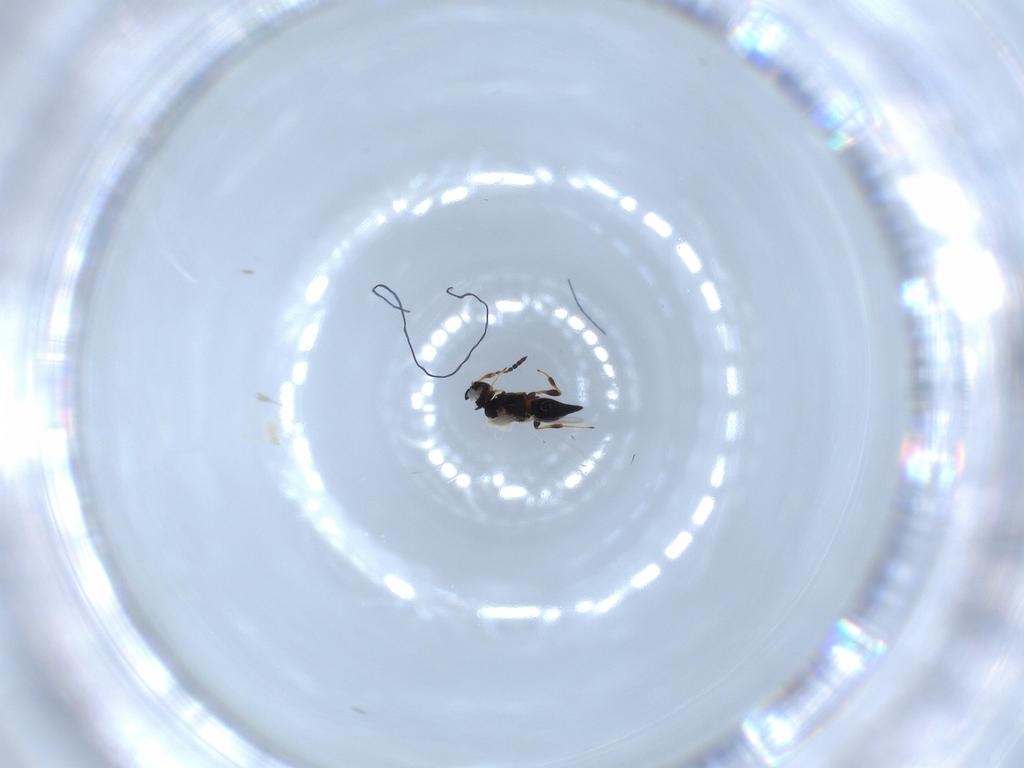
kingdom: Animalia
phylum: Arthropoda
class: Insecta
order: Hymenoptera
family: Platygastridae
